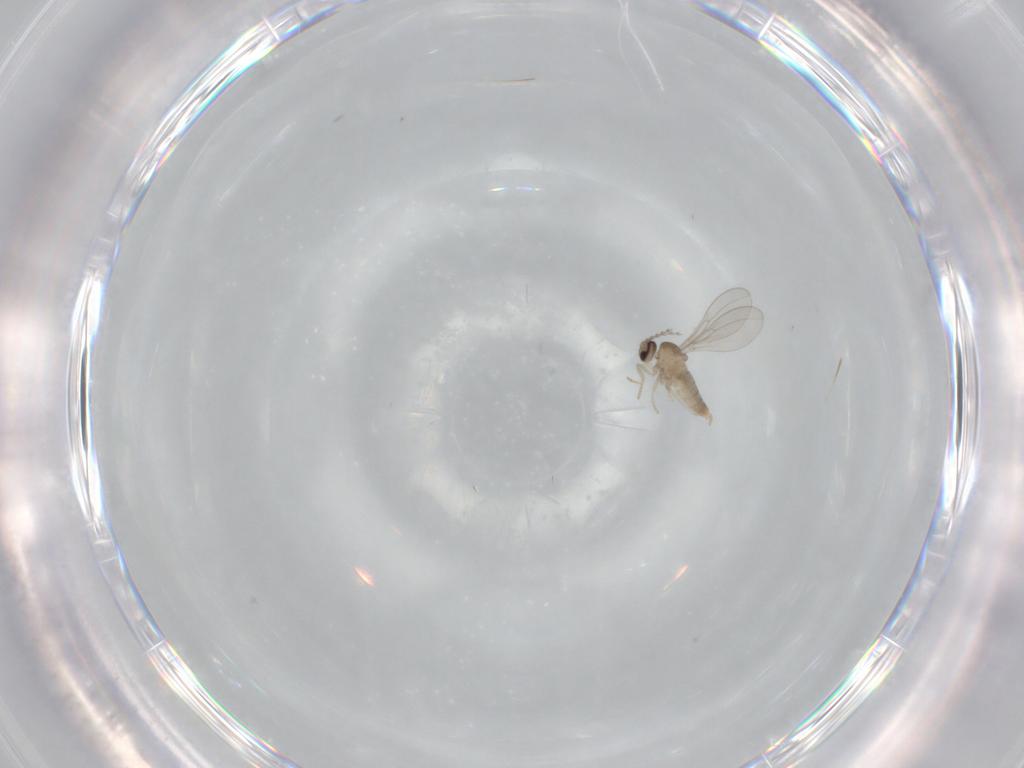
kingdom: Animalia
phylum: Arthropoda
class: Insecta
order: Diptera
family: Cecidomyiidae
